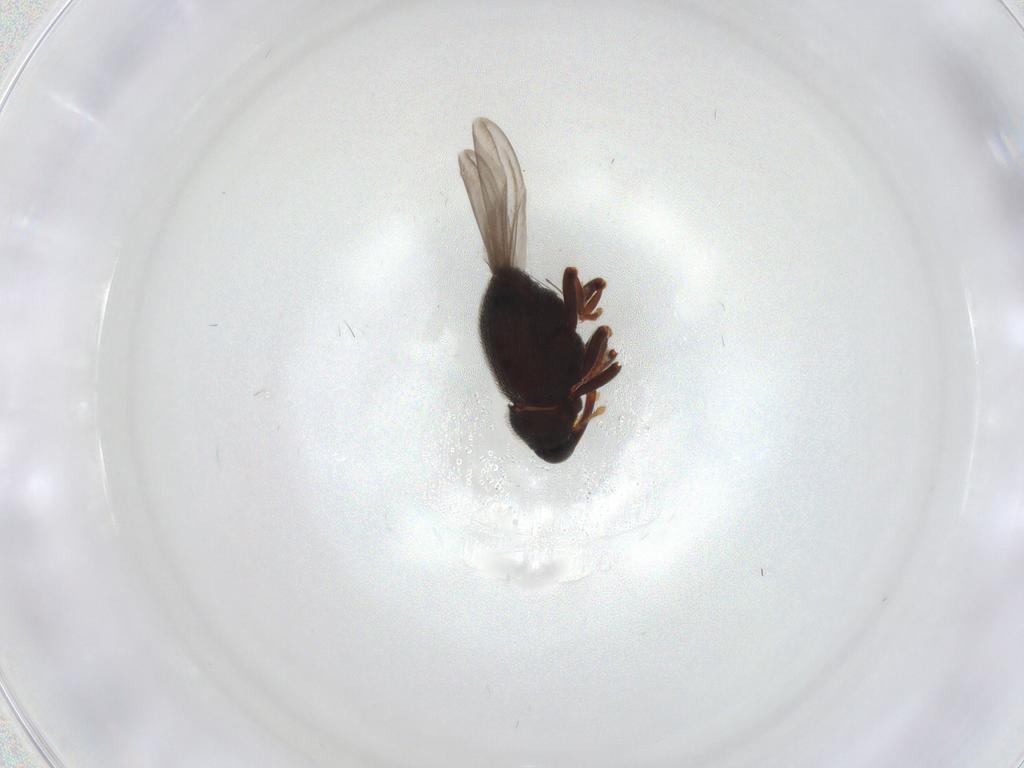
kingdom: Animalia
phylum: Arthropoda
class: Insecta
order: Coleoptera
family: Curculionidae
